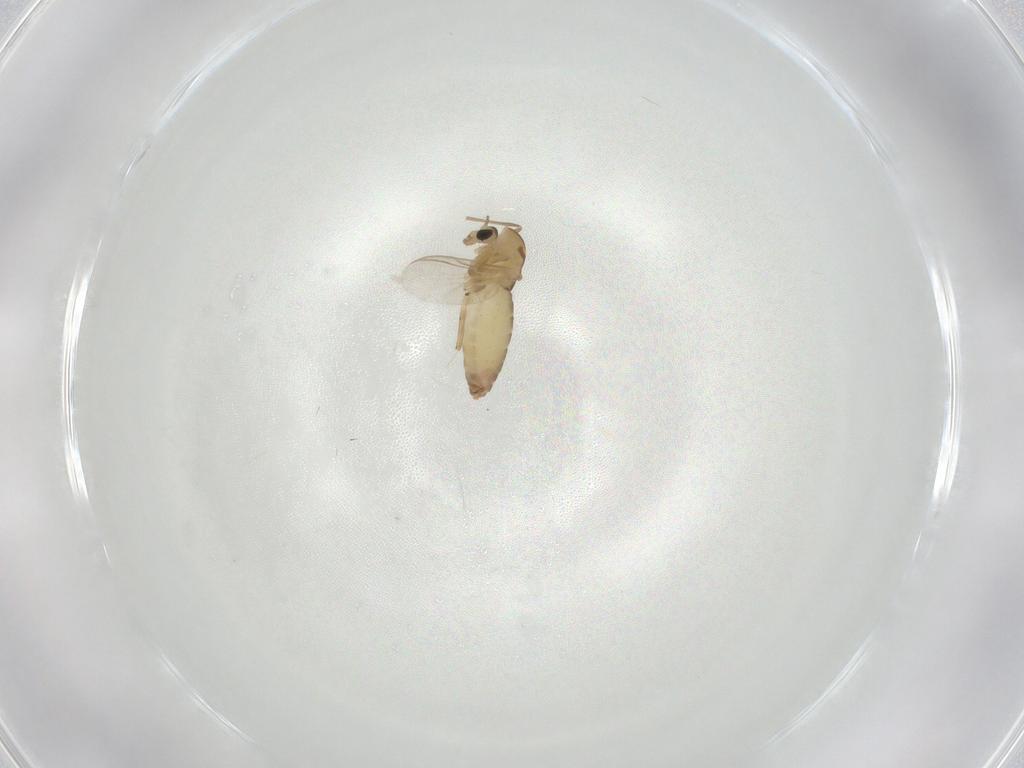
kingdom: Animalia
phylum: Arthropoda
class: Insecta
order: Diptera
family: Chironomidae
